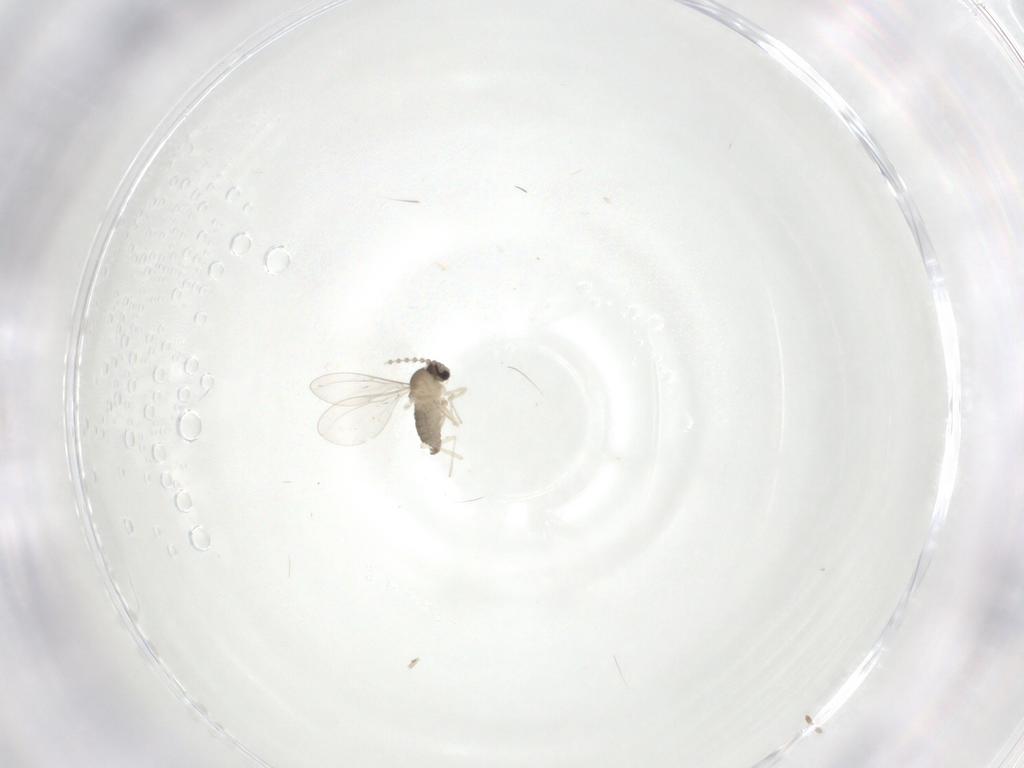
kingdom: Animalia
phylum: Arthropoda
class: Insecta
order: Diptera
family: Cecidomyiidae
